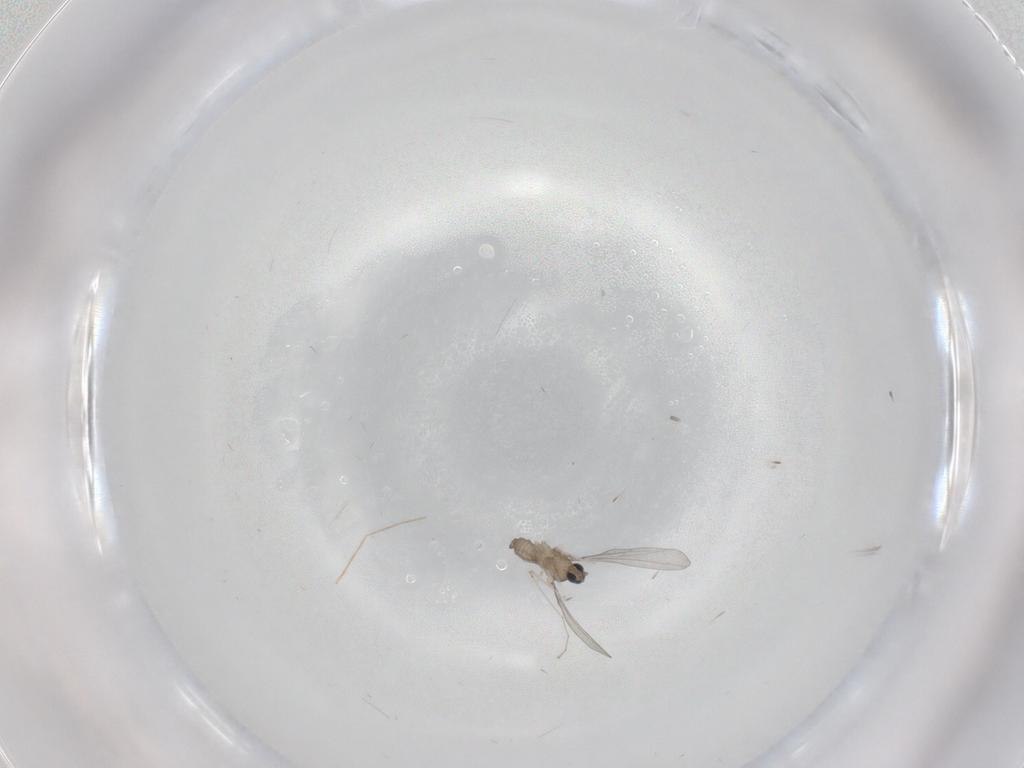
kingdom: Animalia
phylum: Arthropoda
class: Insecta
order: Diptera
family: Cecidomyiidae
